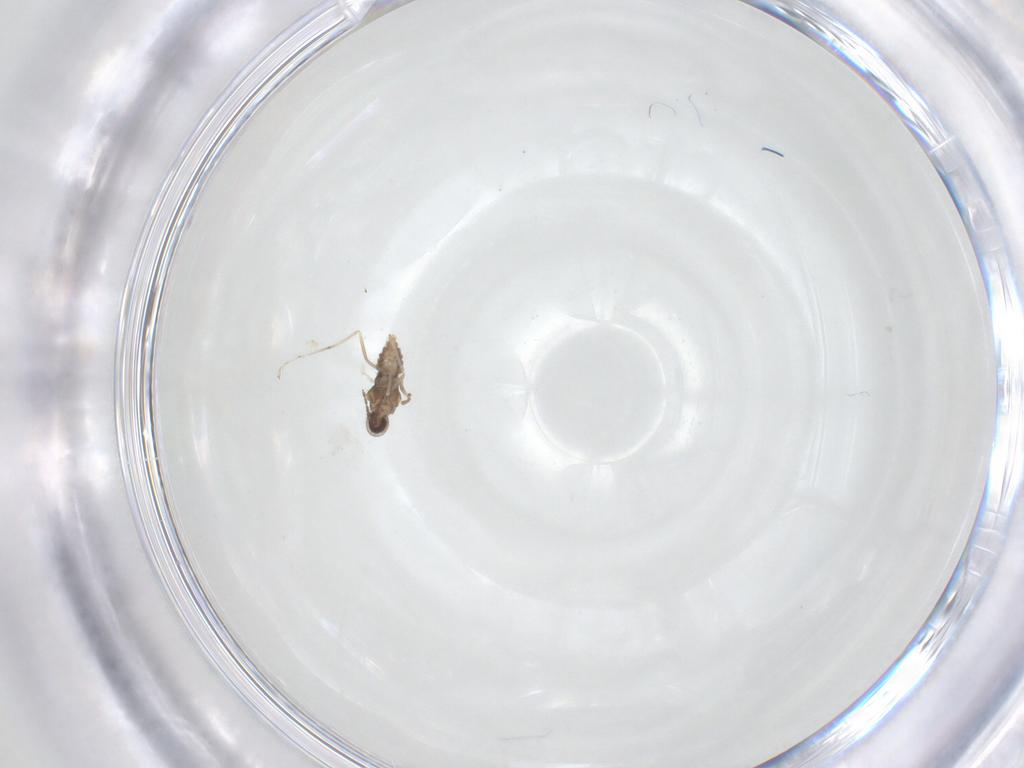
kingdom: Animalia
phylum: Arthropoda
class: Insecta
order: Diptera
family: Cecidomyiidae
